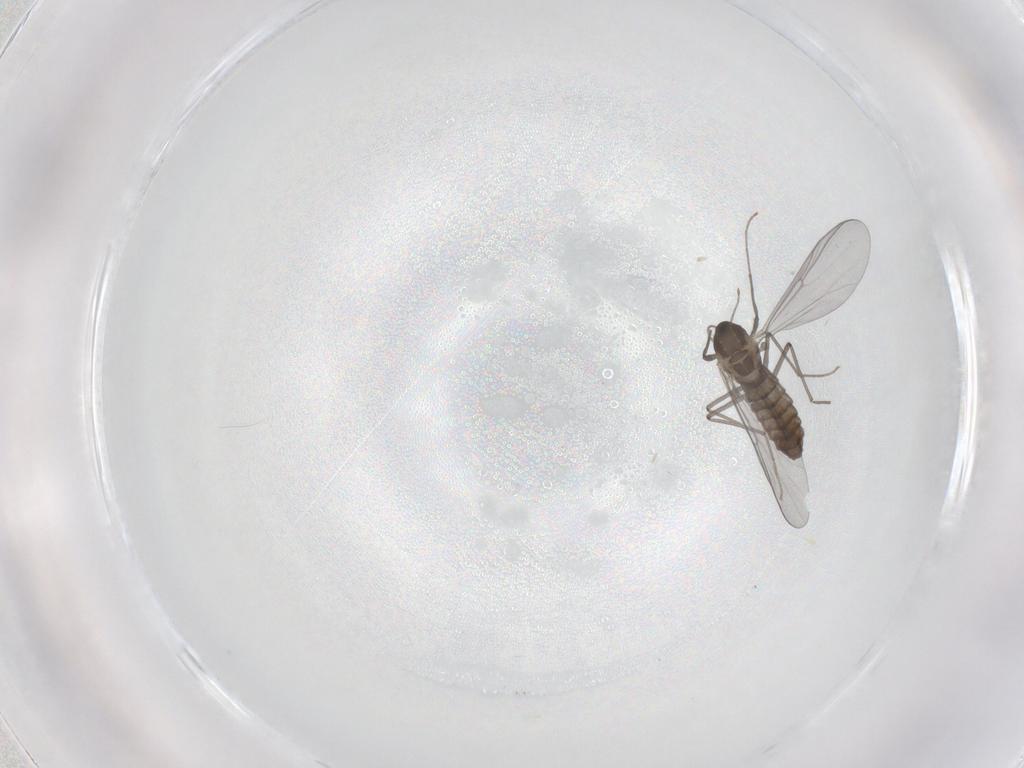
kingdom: Animalia
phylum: Arthropoda
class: Insecta
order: Diptera
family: Chironomidae
